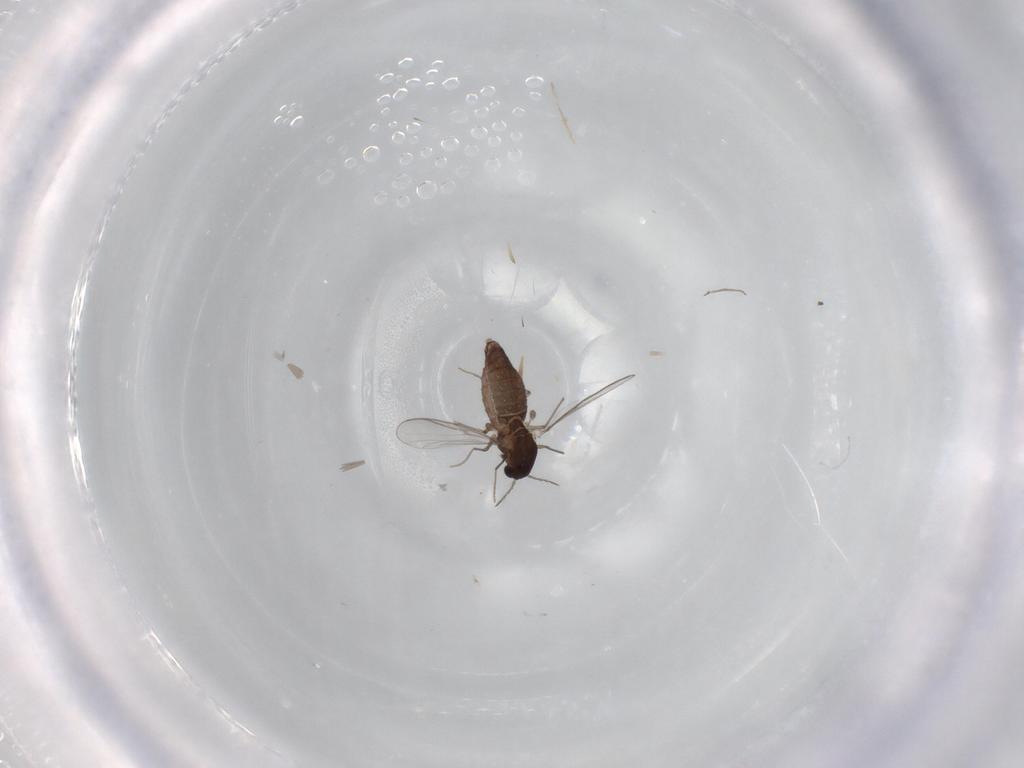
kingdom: Animalia
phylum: Arthropoda
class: Insecta
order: Diptera
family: Chironomidae
